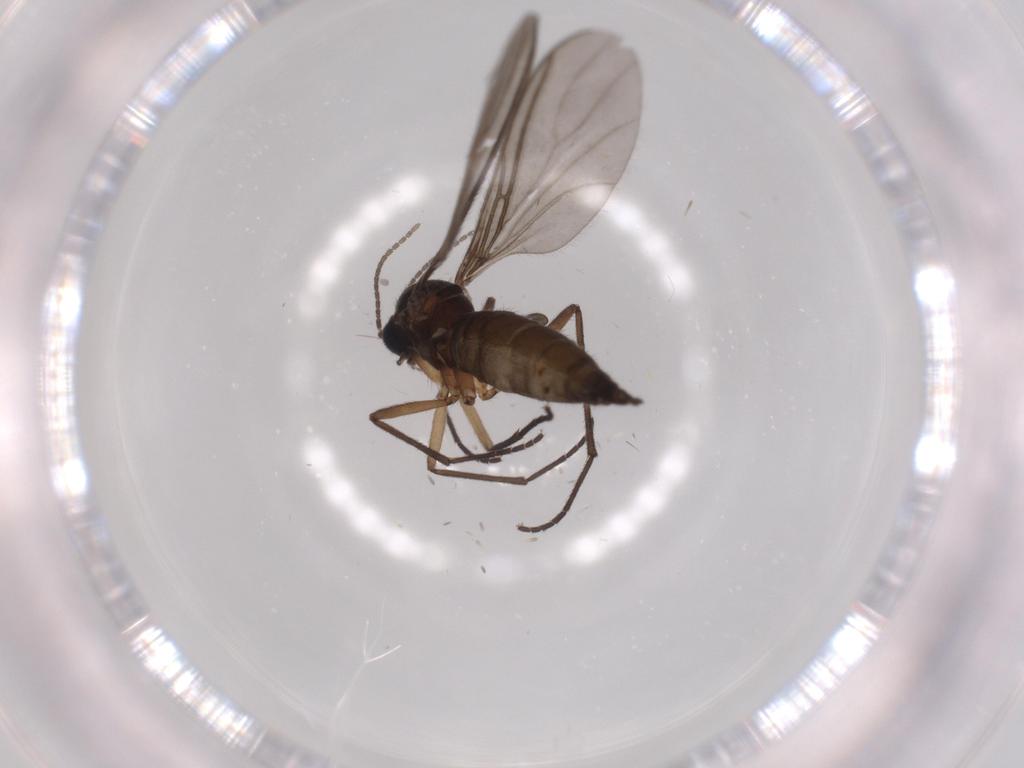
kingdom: Animalia
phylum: Arthropoda
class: Insecta
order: Diptera
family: Sciaridae
